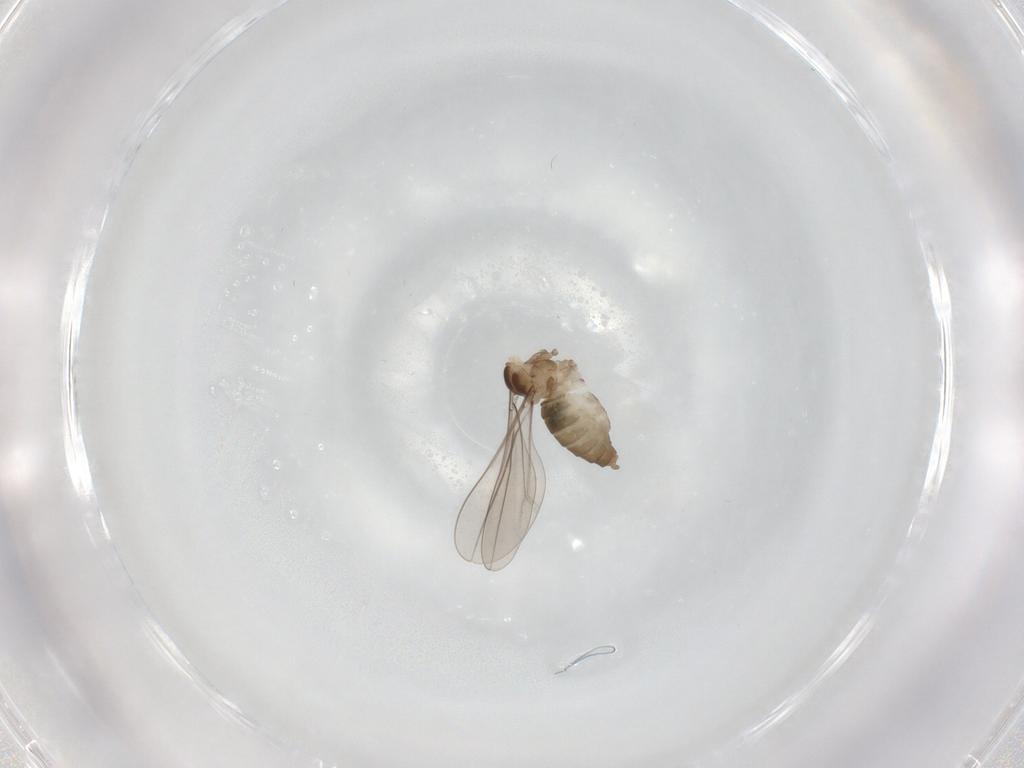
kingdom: Animalia
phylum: Arthropoda
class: Insecta
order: Diptera
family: Cecidomyiidae
